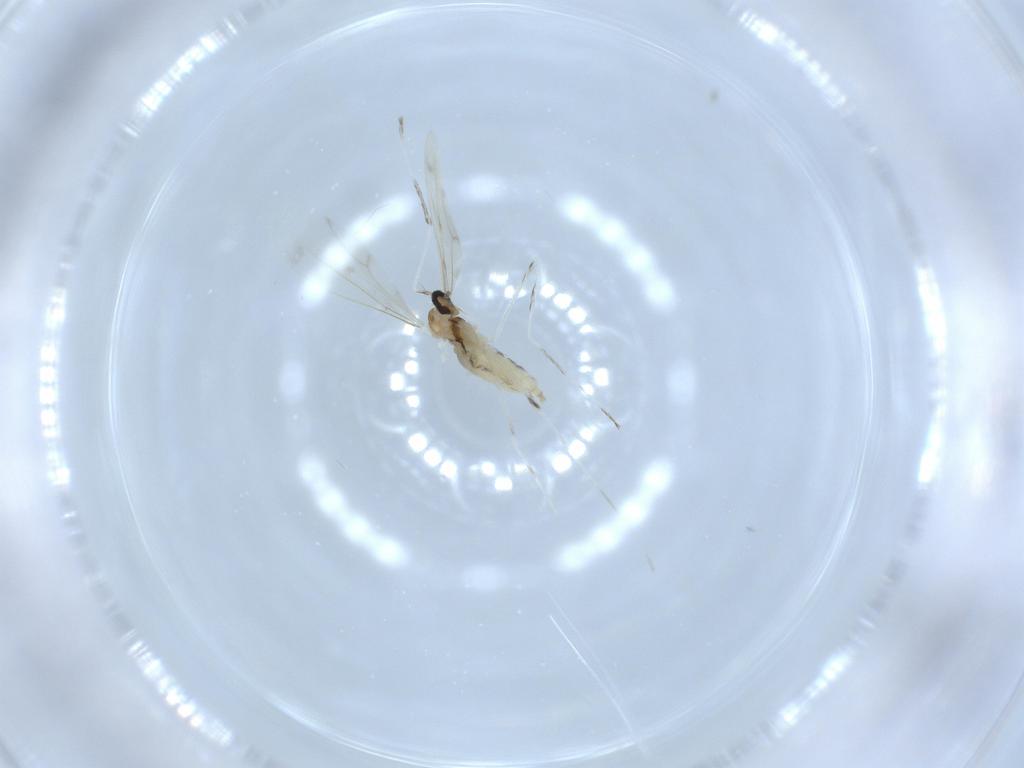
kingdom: Animalia
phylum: Arthropoda
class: Insecta
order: Diptera
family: Cecidomyiidae
